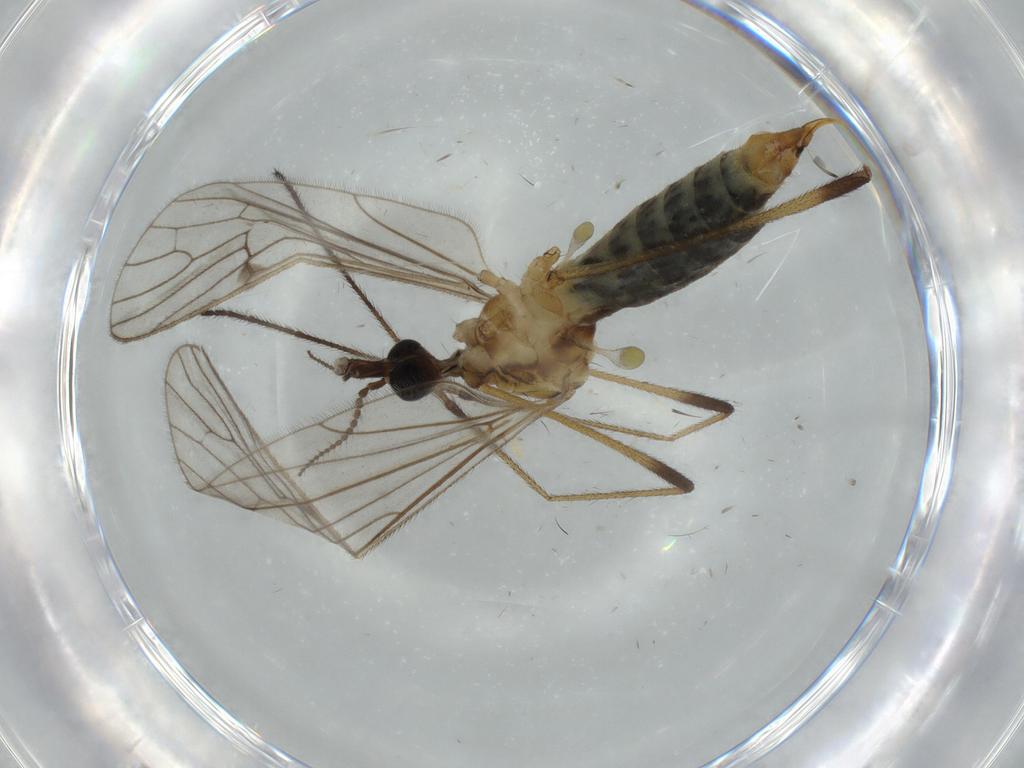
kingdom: Animalia
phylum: Arthropoda
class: Insecta
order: Diptera
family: Limoniidae
